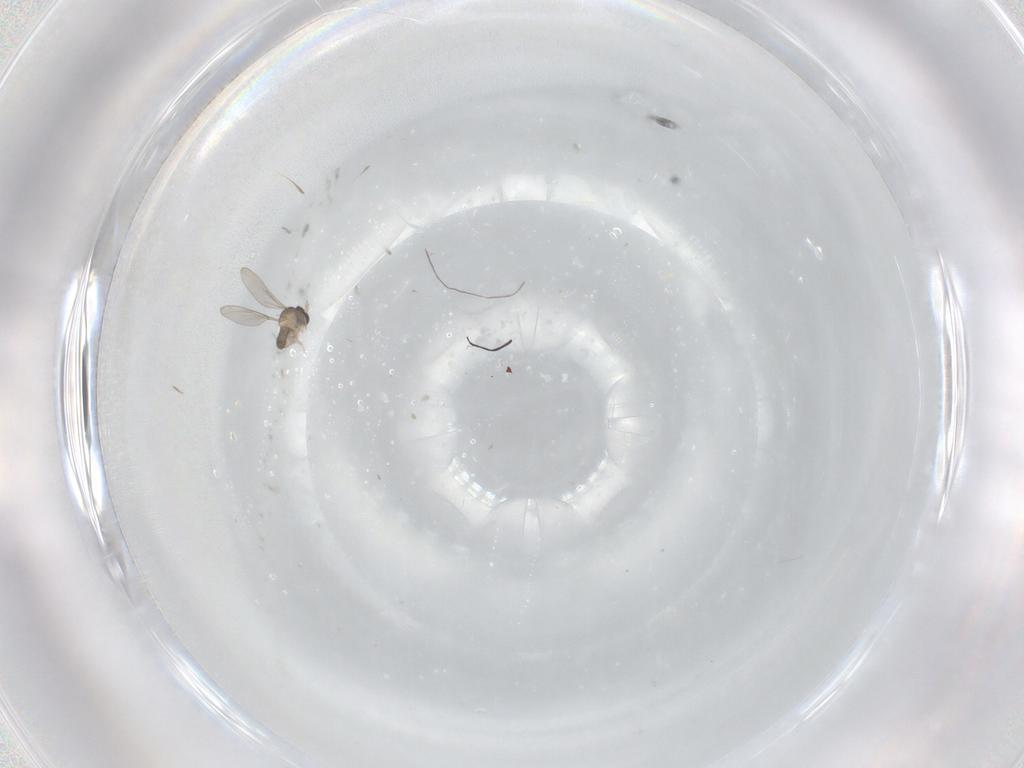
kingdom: Animalia
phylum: Arthropoda
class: Insecta
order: Diptera
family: Cecidomyiidae
